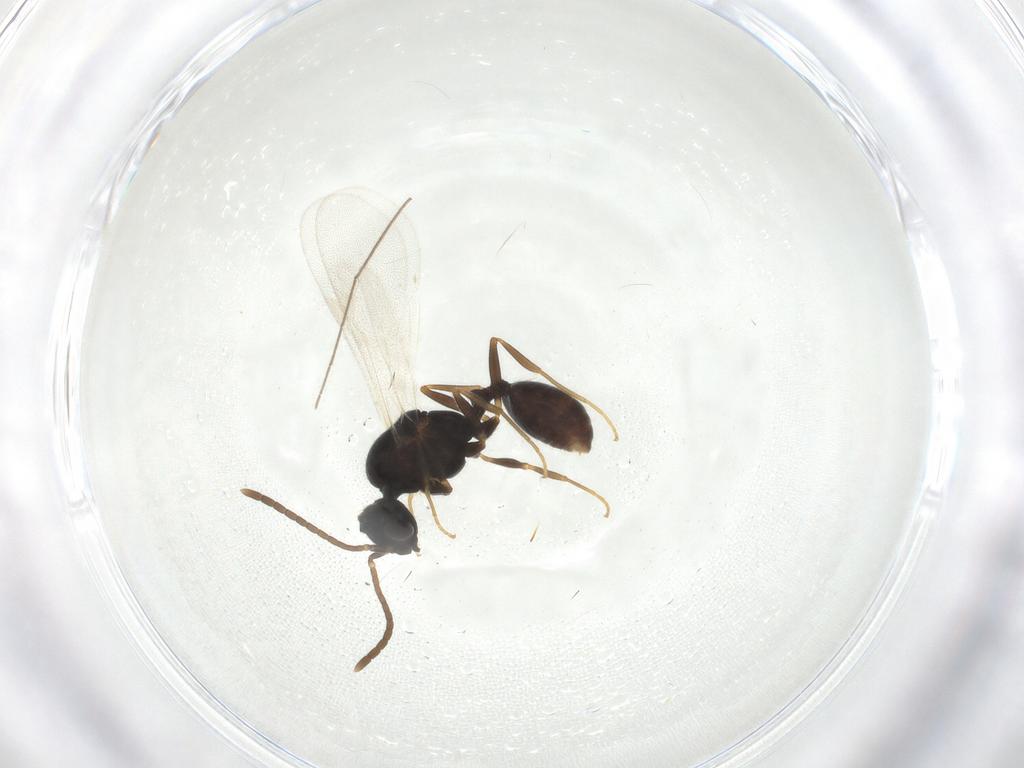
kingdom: Animalia
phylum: Arthropoda
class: Insecta
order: Hymenoptera
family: Formicidae
